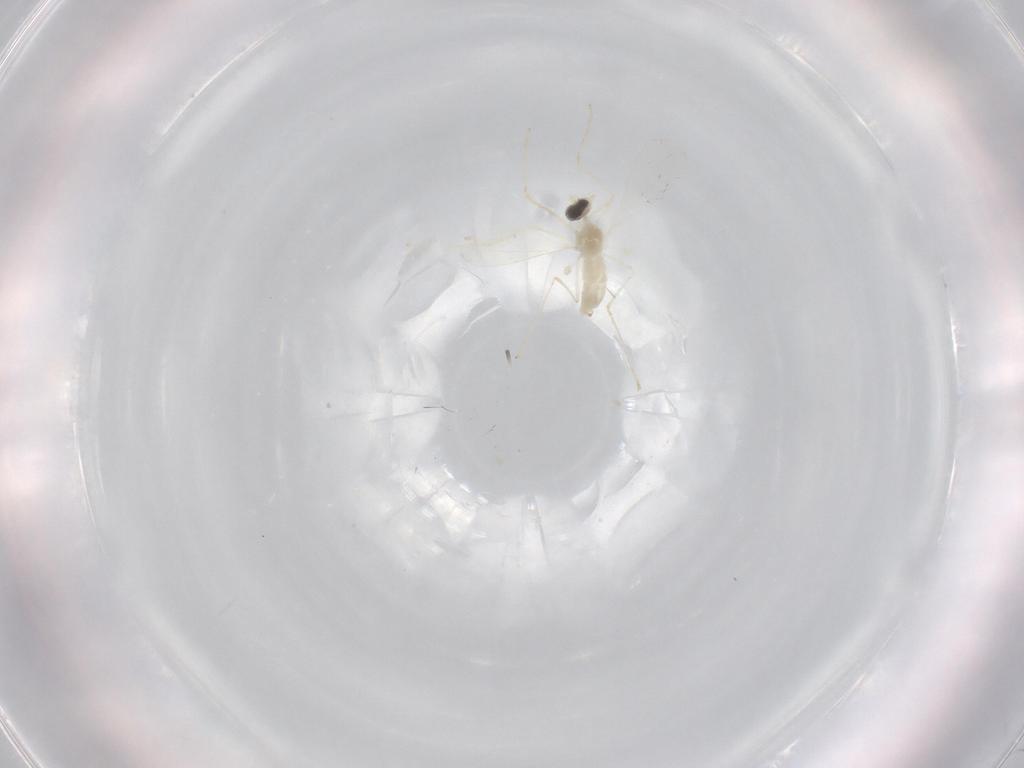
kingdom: Animalia
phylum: Arthropoda
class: Insecta
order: Diptera
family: Cecidomyiidae
